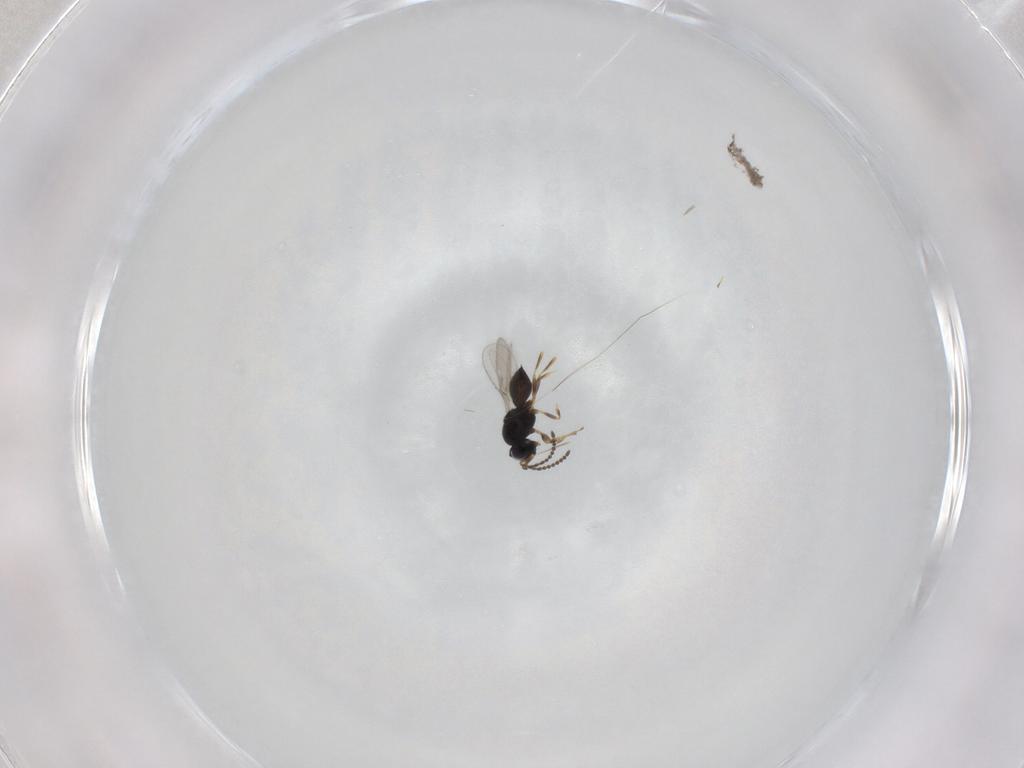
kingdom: Animalia
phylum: Arthropoda
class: Insecta
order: Hymenoptera
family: Scelionidae
